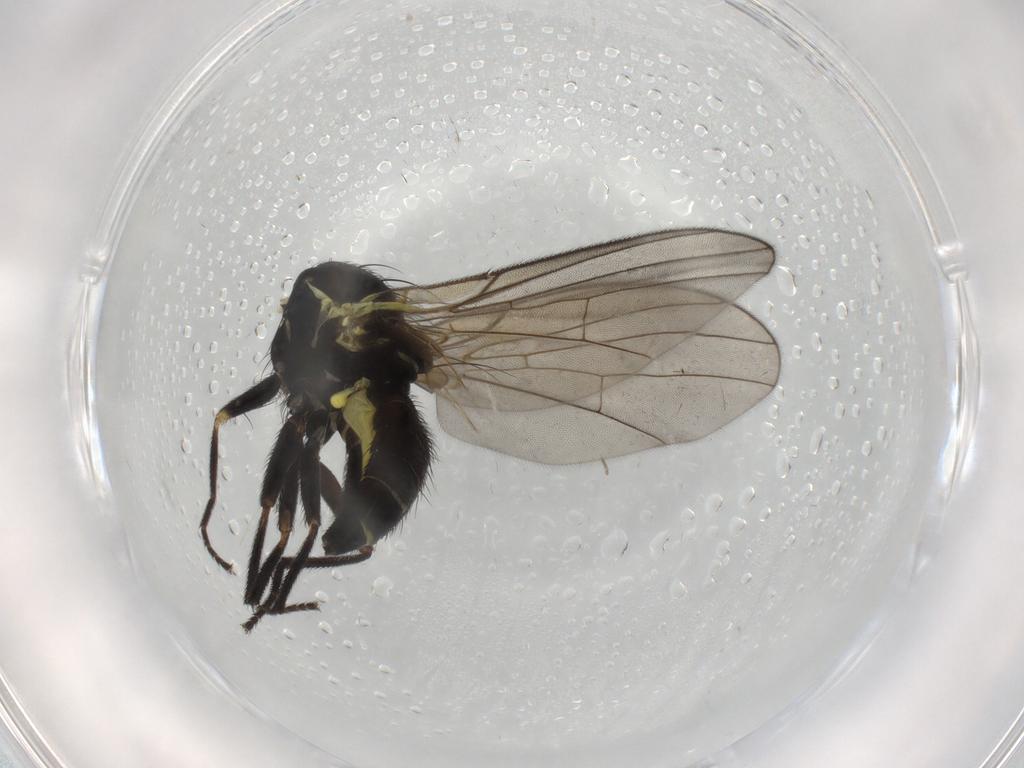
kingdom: Animalia
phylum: Arthropoda
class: Insecta
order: Diptera
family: Agromyzidae
